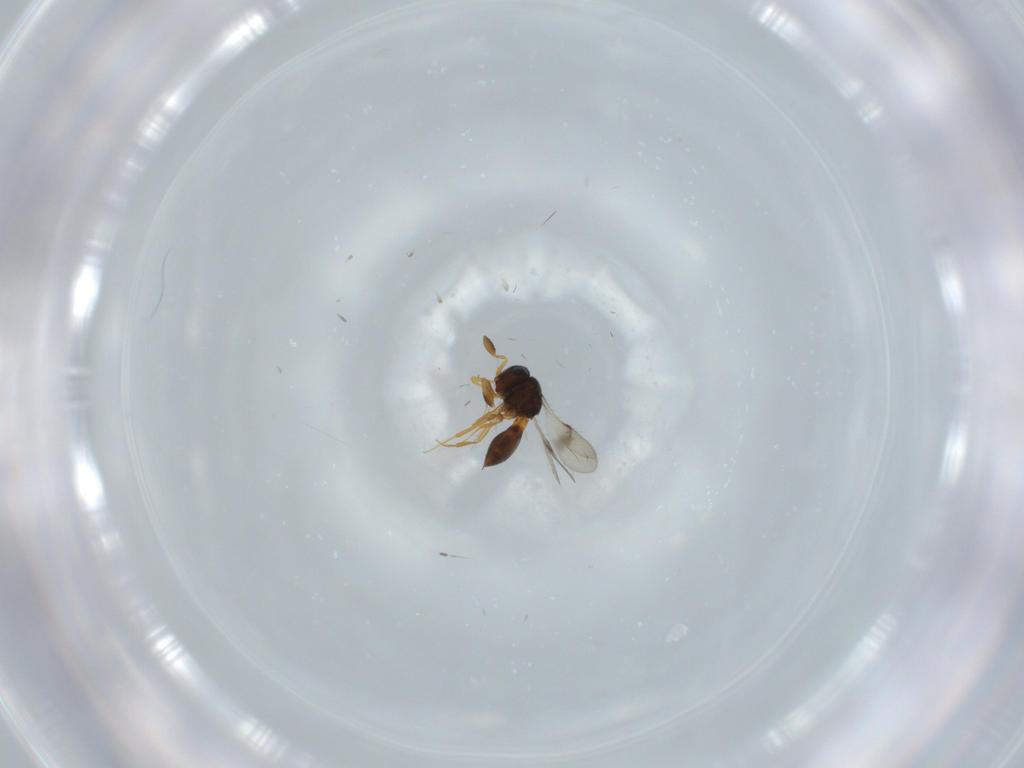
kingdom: Animalia
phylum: Arthropoda
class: Insecta
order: Hymenoptera
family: Scelionidae
